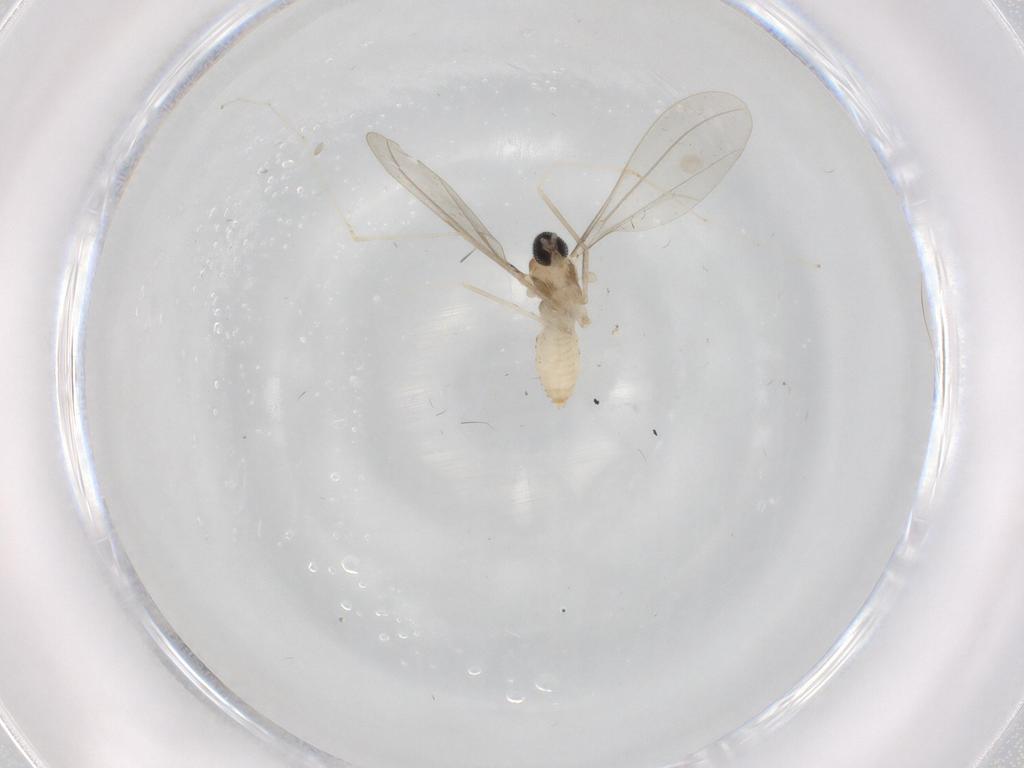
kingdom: Animalia
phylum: Arthropoda
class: Insecta
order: Diptera
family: Cecidomyiidae
